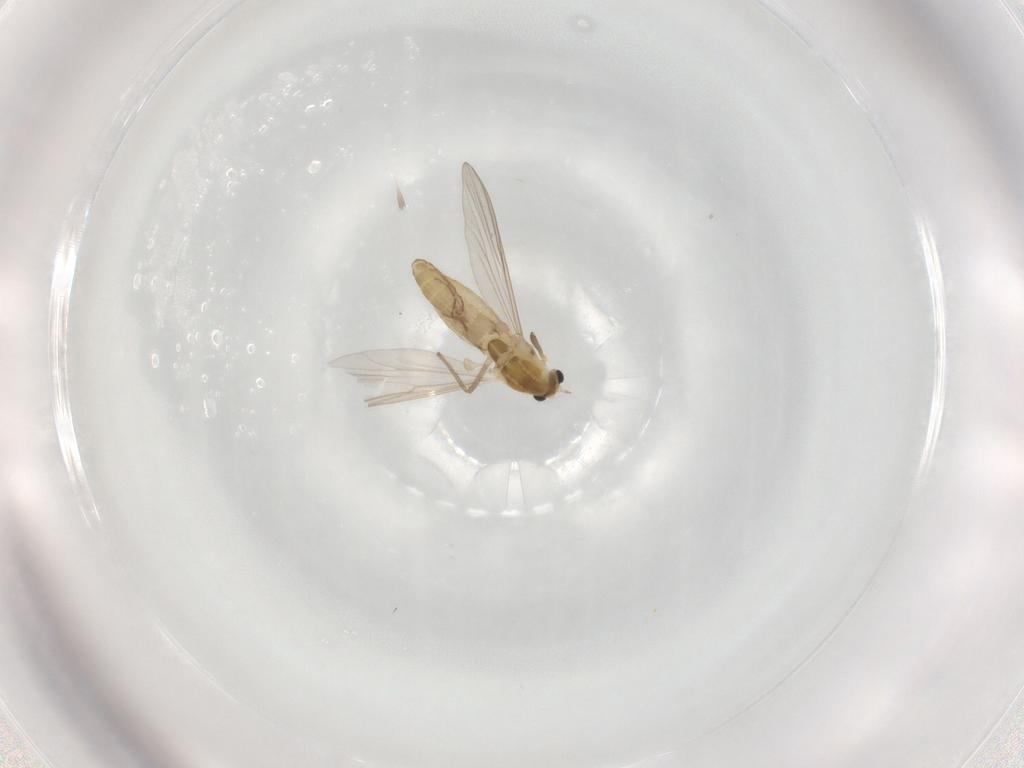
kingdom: Animalia
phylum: Arthropoda
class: Insecta
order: Diptera
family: Chironomidae
